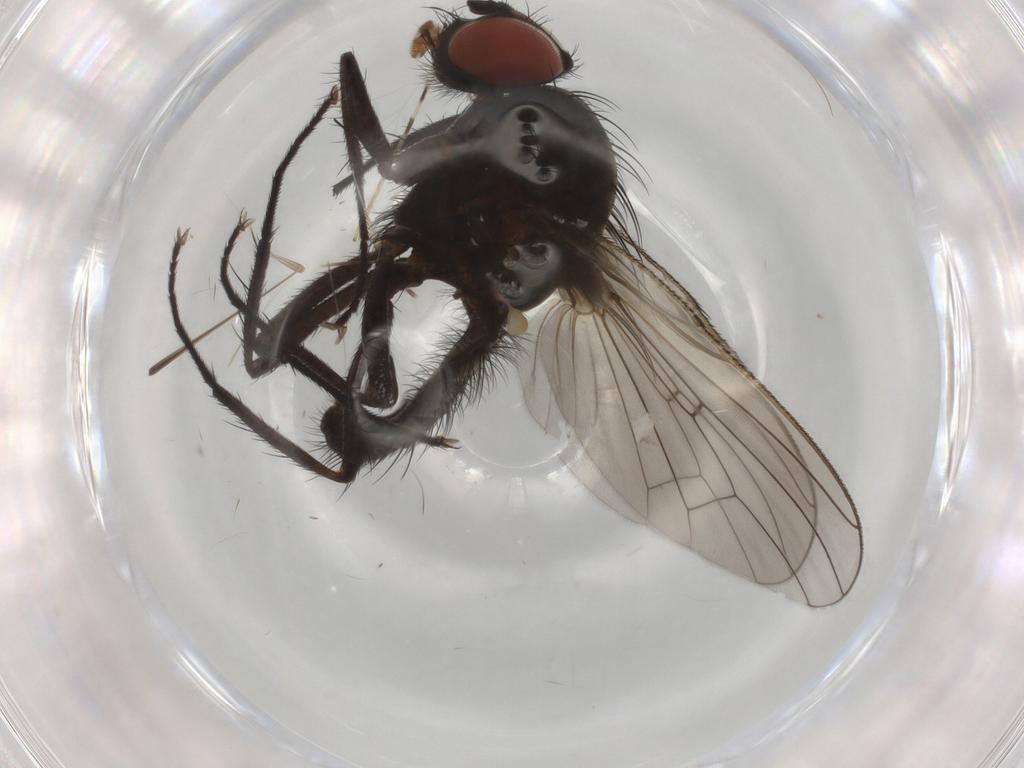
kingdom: Animalia
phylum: Arthropoda
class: Insecta
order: Diptera
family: Anthomyiidae
